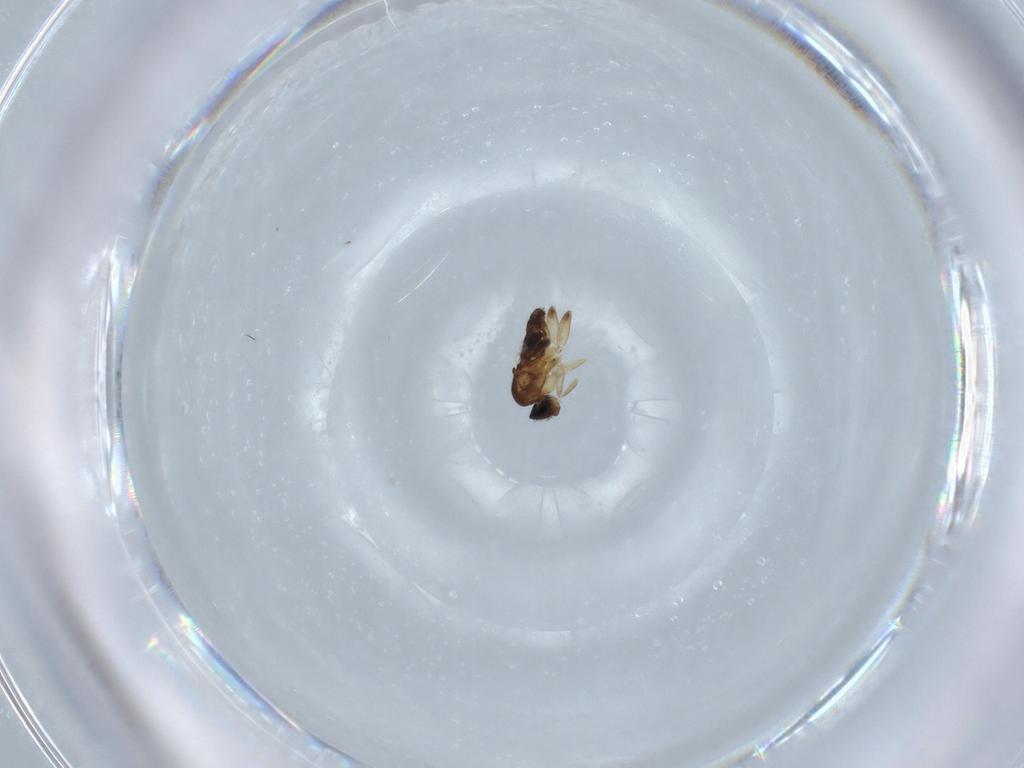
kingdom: Animalia
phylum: Arthropoda
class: Insecta
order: Diptera
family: Phoridae
